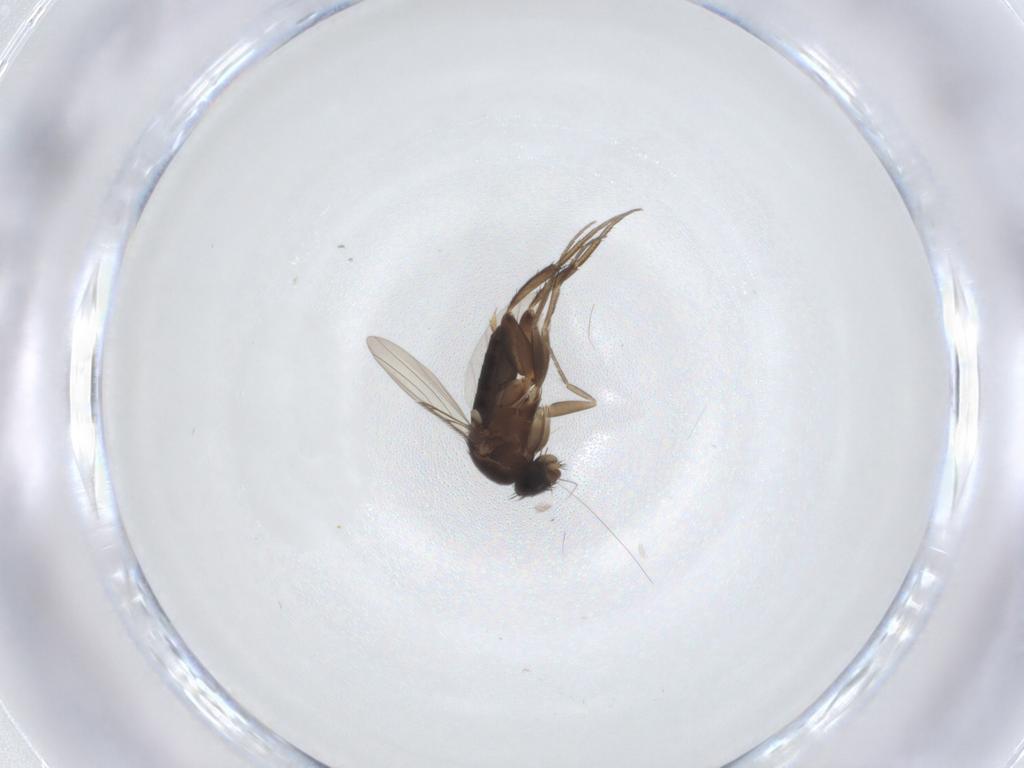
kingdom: Animalia
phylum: Arthropoda
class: Insecta
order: Diptera
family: Phoridae
